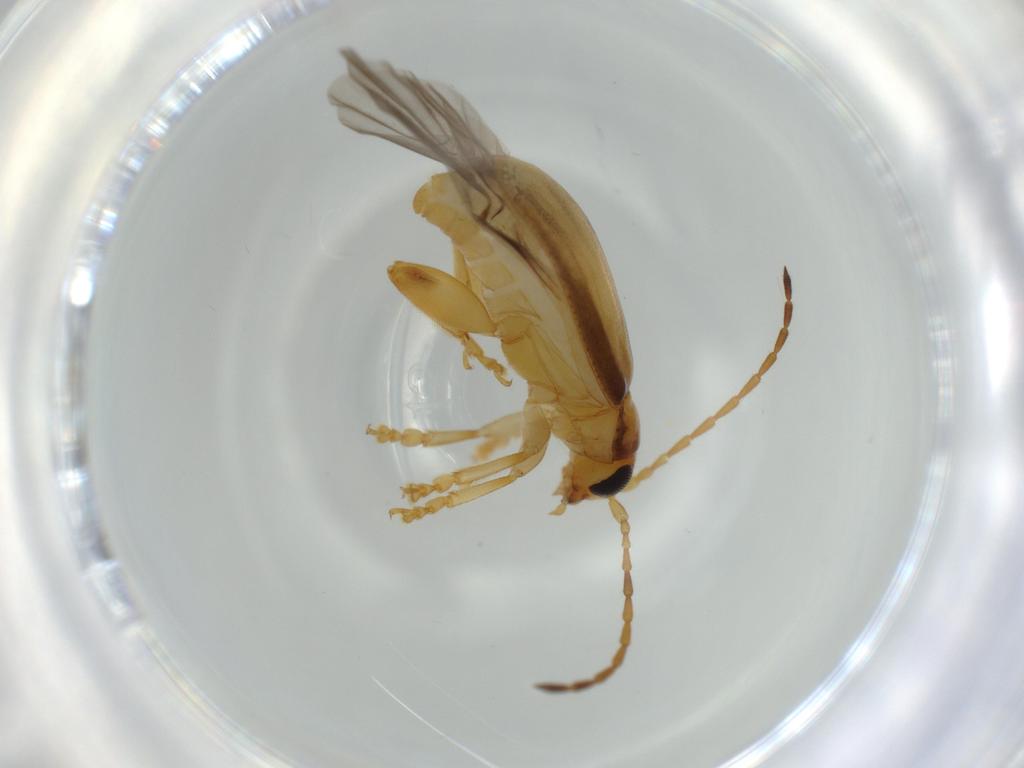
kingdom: Animalia
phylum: Arthropoda
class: Insecta
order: Coleoptera
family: Chrysomelidae
